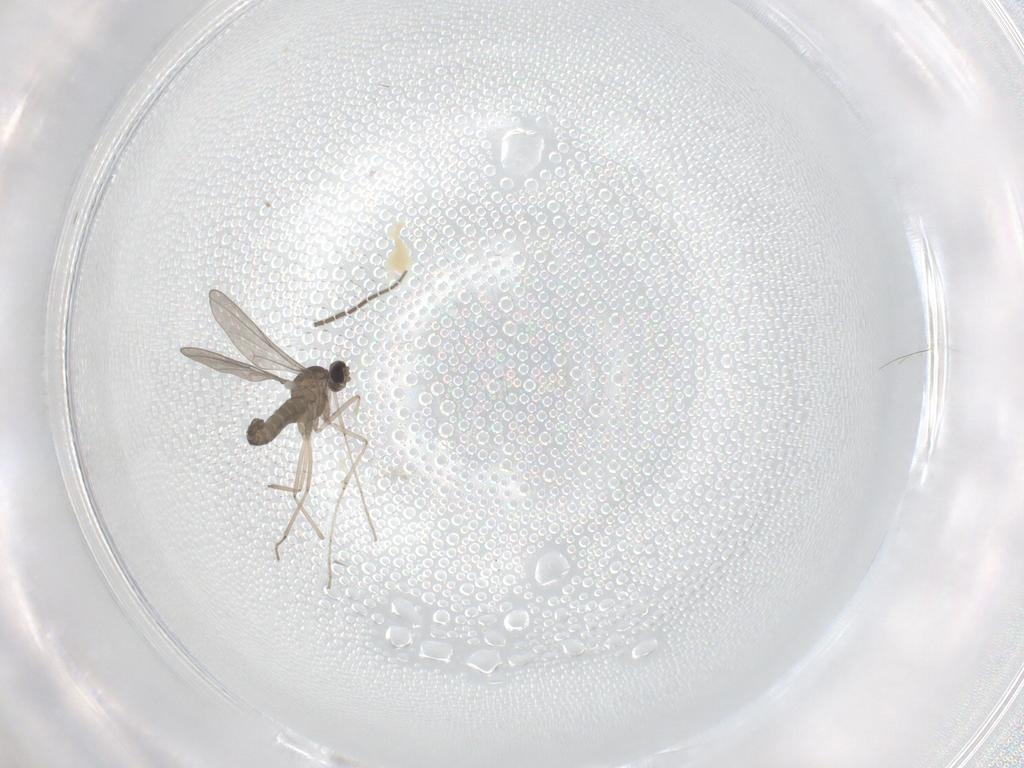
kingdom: Animalia
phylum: Arthropoda
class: Insecta
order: Diptera
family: Cecidomyiidae
